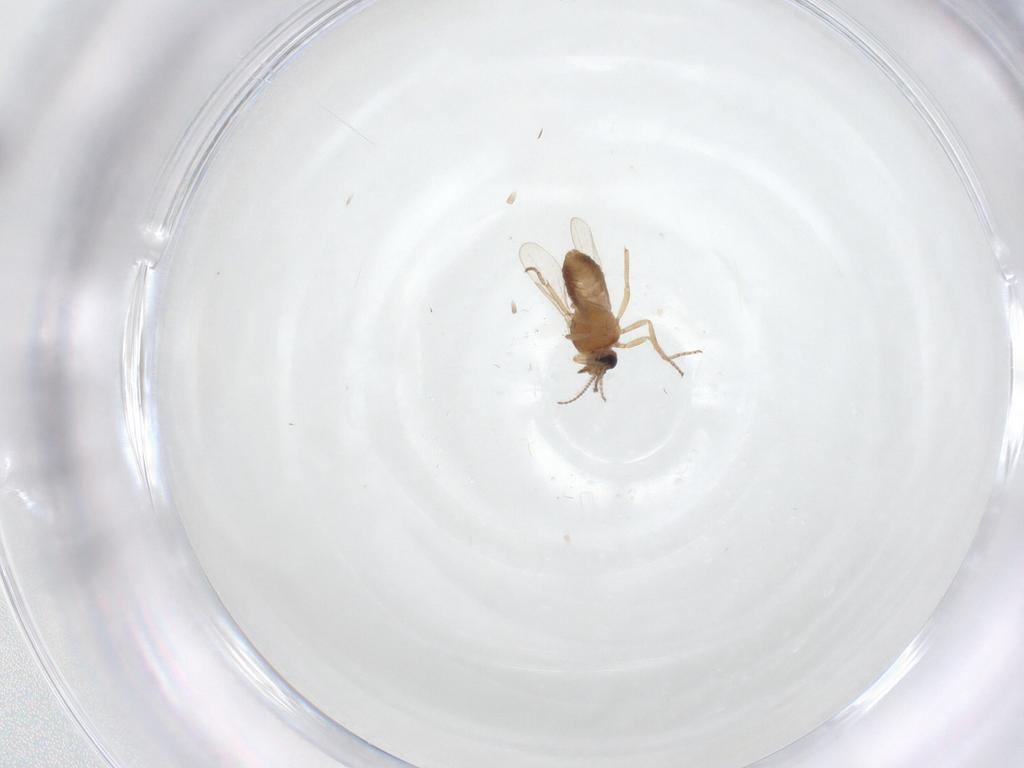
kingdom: Animalia
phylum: Arthropoda
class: Insecta
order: Diptera
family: Ceratopogonidae
